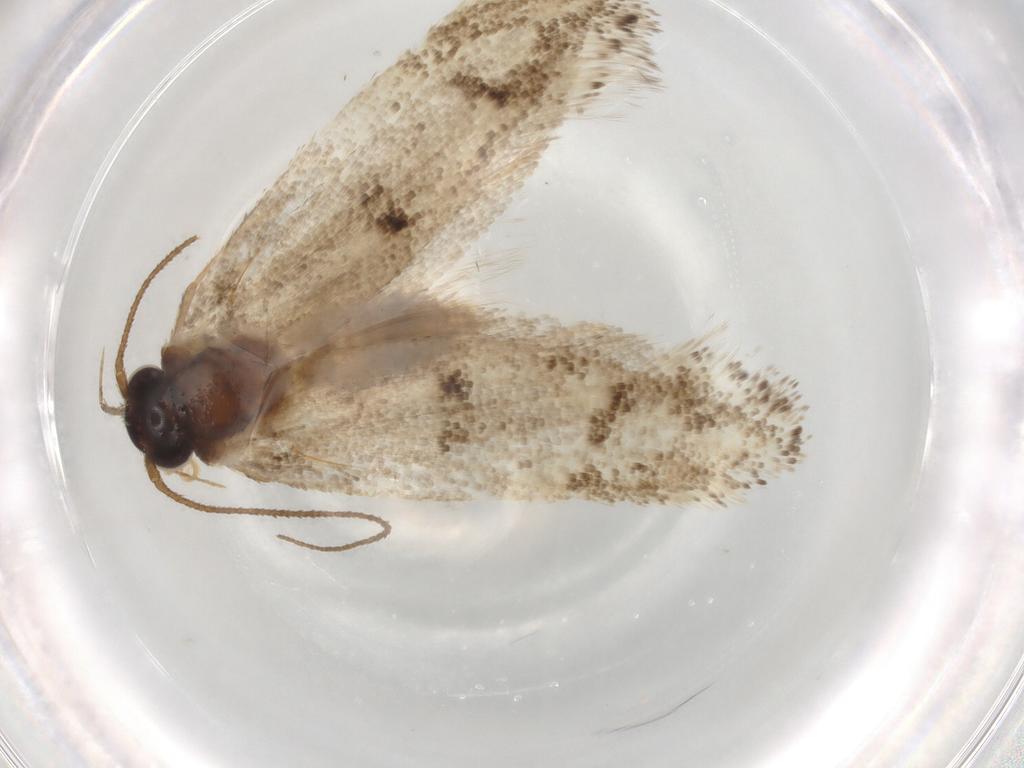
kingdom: Animalia
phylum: Arthropoda
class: Insecta
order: Lepidoptera
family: Oecophoridae
